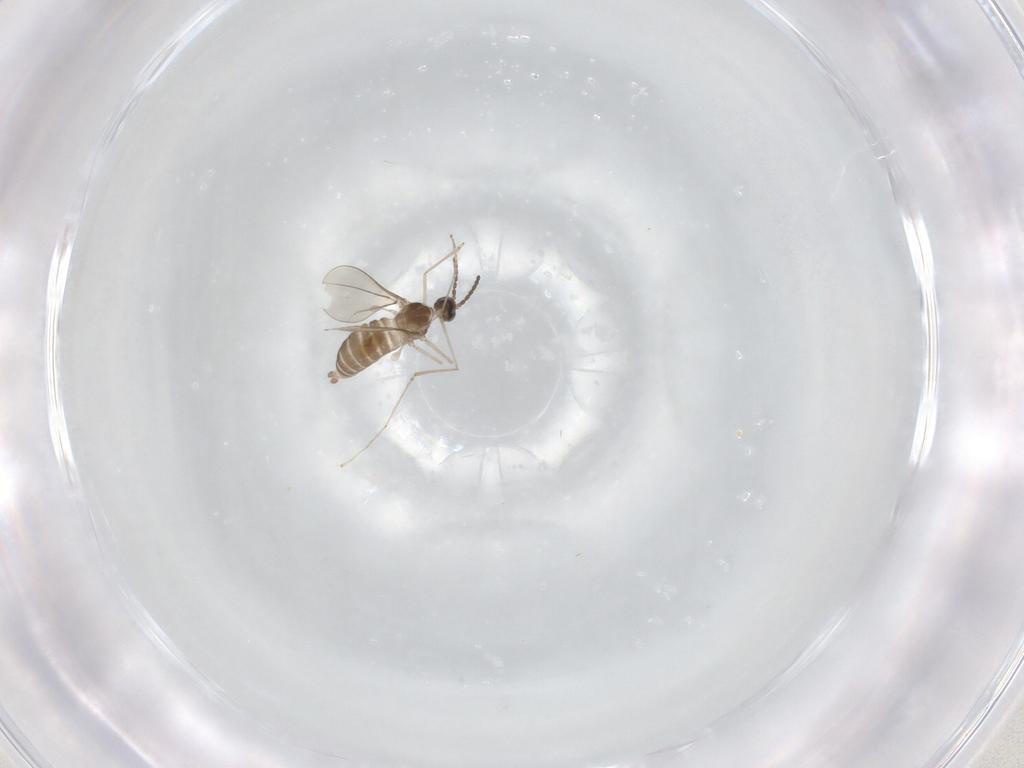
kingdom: Animalia
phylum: Arthropoda
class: Insecta
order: Diptera
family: Cecidomyiidae
